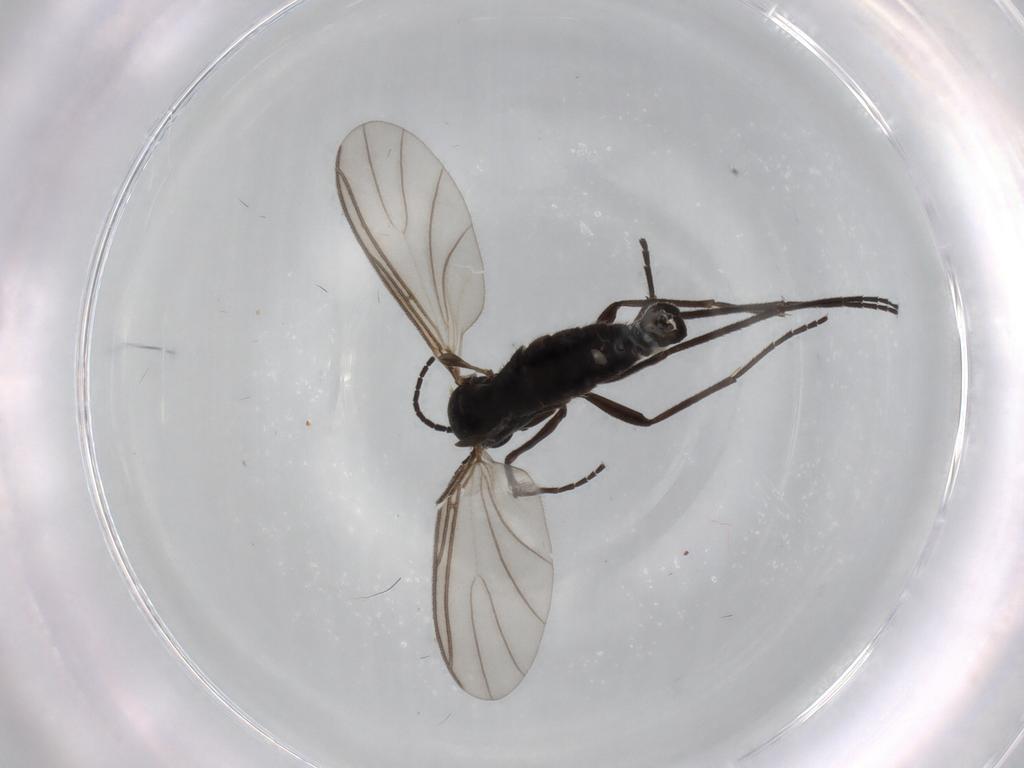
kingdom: Animalia
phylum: Arthropoda
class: Insecta
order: Diptera
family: Sciaridae
